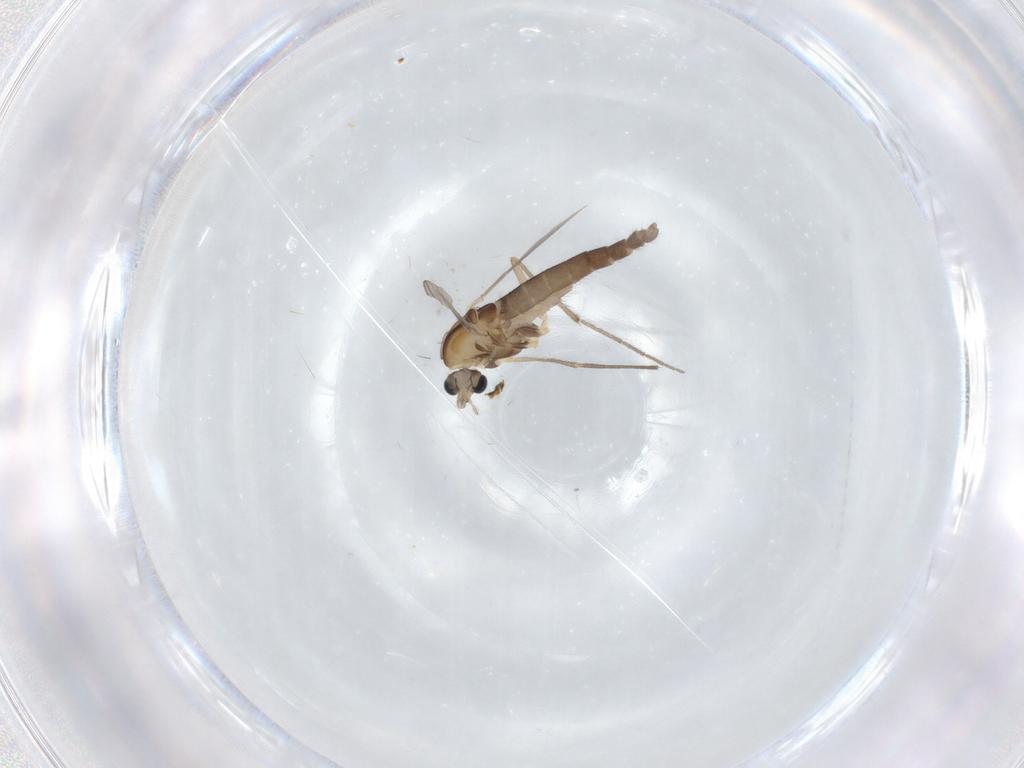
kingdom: Animalia
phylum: Arthropoda
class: Insecta
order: Diptera
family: Chironomidae
